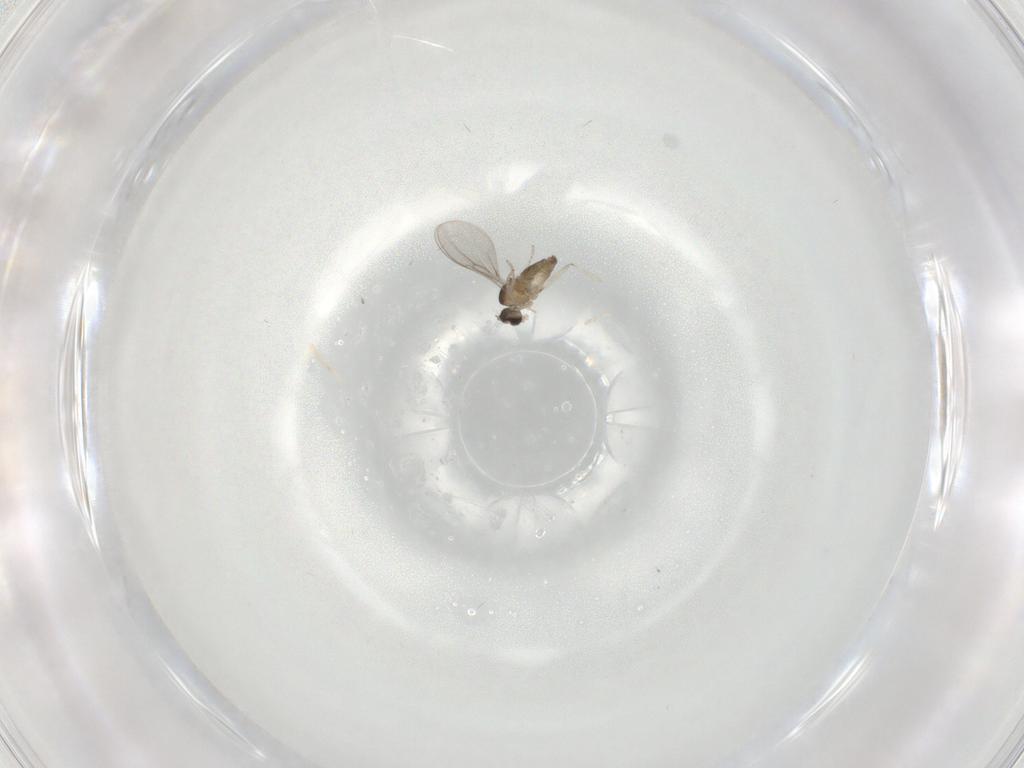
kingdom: Animalia
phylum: Arthropoda
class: Insecta
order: Diptera
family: Cecidomyiidae
